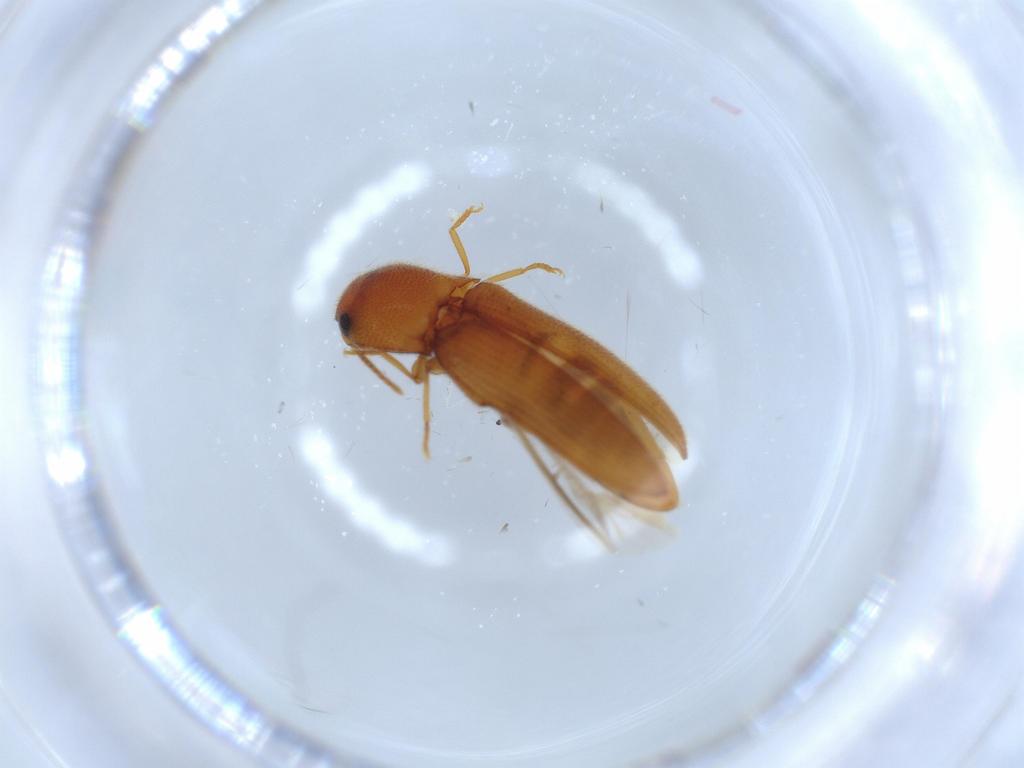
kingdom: Animalia
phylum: Arthropoda
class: Insecta
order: Coleoptera
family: Elateridae
